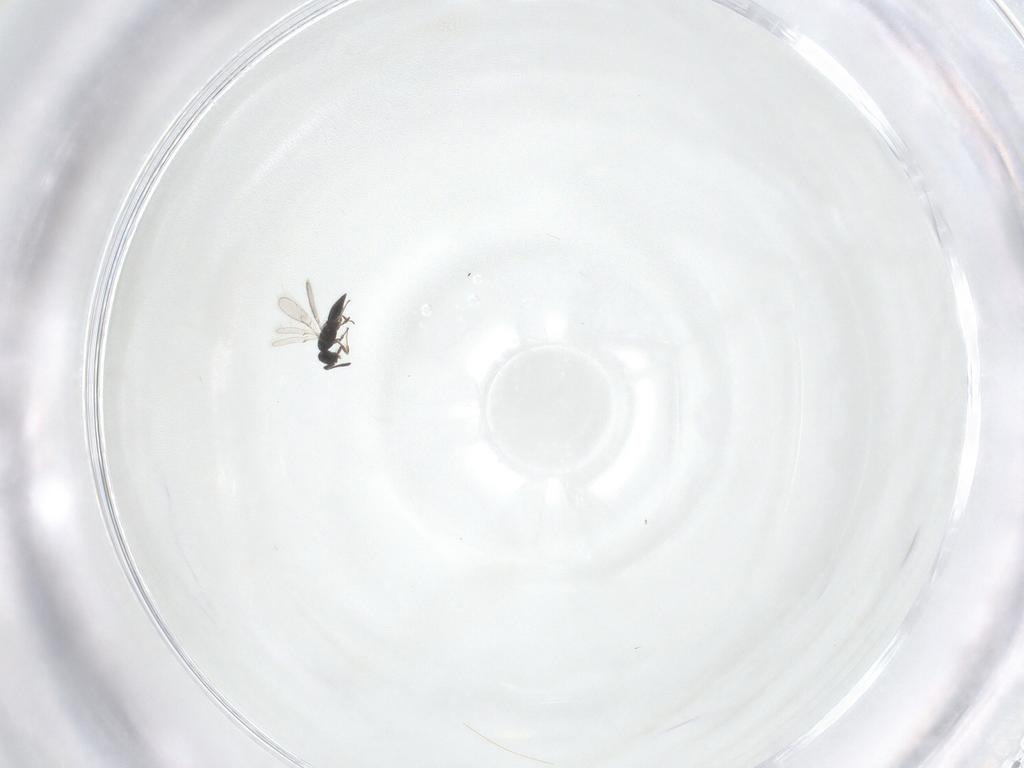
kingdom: Animalia
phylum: Arthropoda
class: Insecta
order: Hymenoptera
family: Scelionidae
